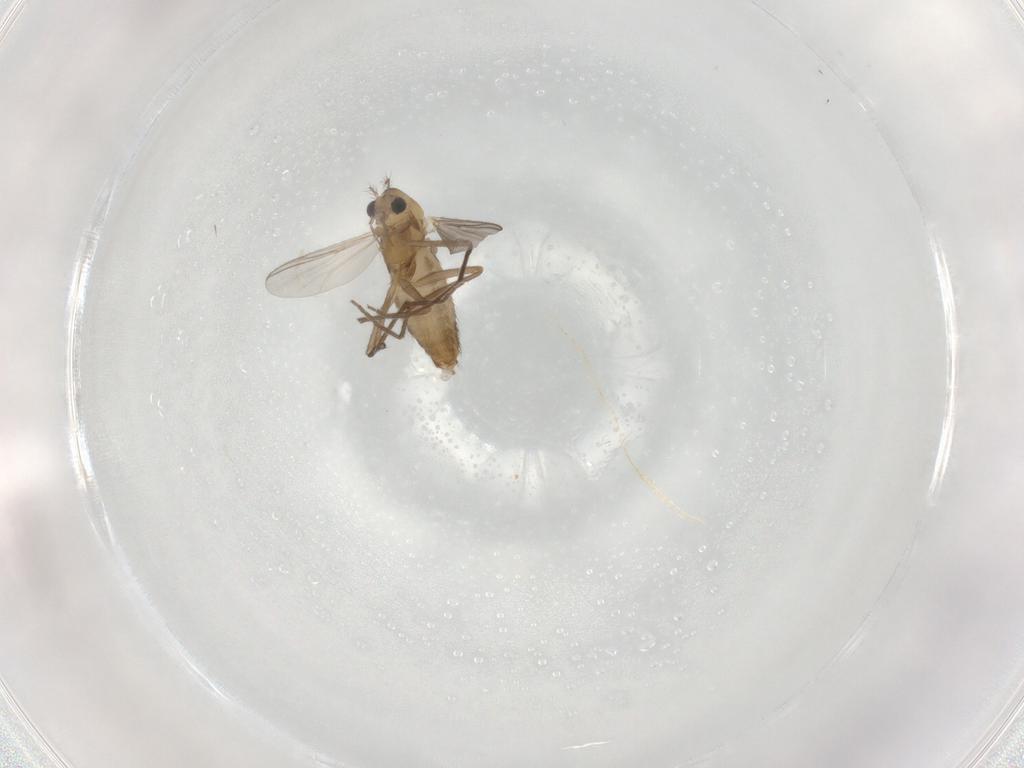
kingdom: Animalia
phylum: Arthropoda
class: Insecta
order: Diptera
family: Chironomidae
